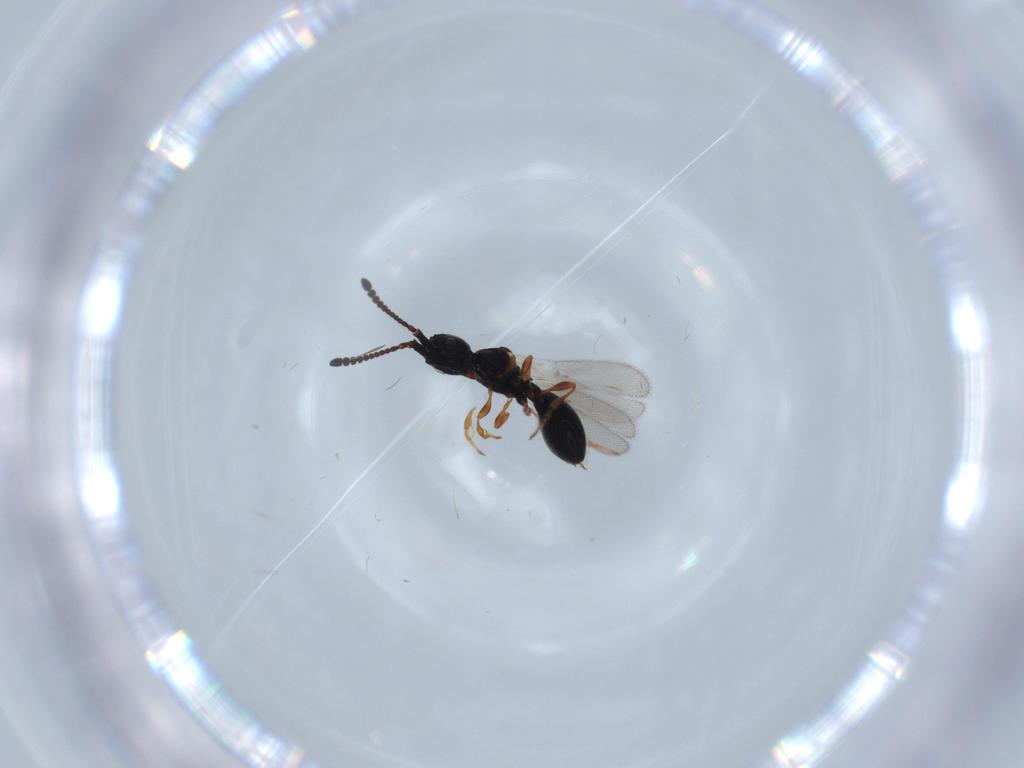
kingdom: Animalia
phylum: Arthropoda
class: Insecta
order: Hymenoptera
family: Diapriidae
